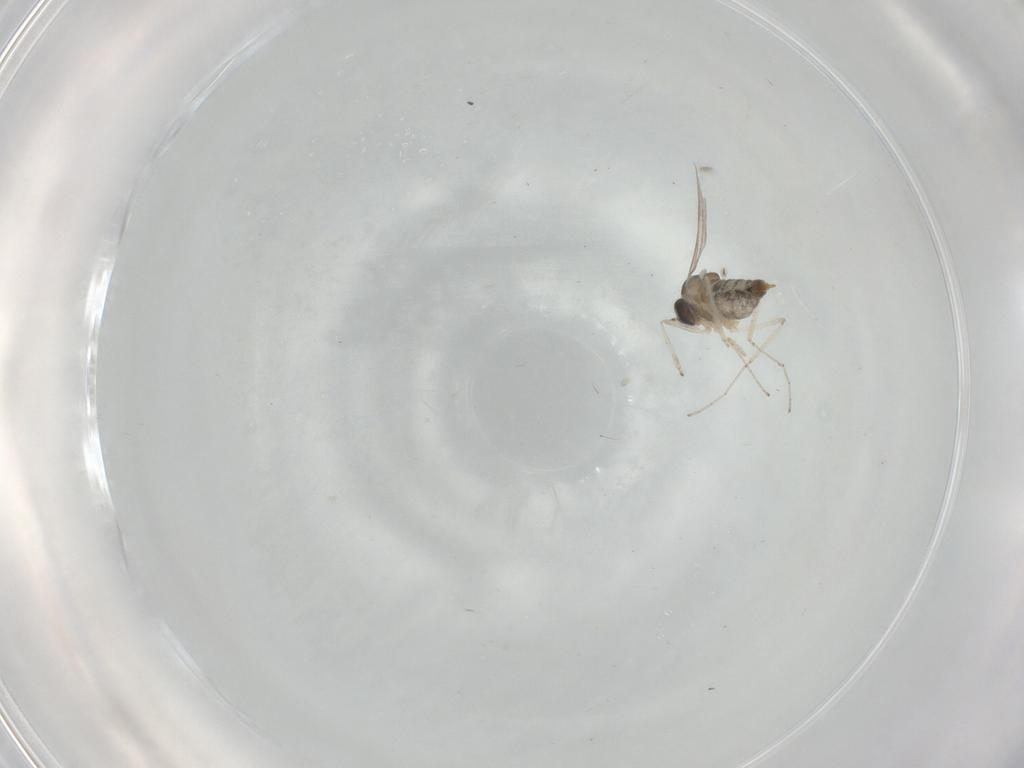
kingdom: Animalia
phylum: Arthropoda
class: Insecta
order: Diptera
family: Cecidomyiidae
